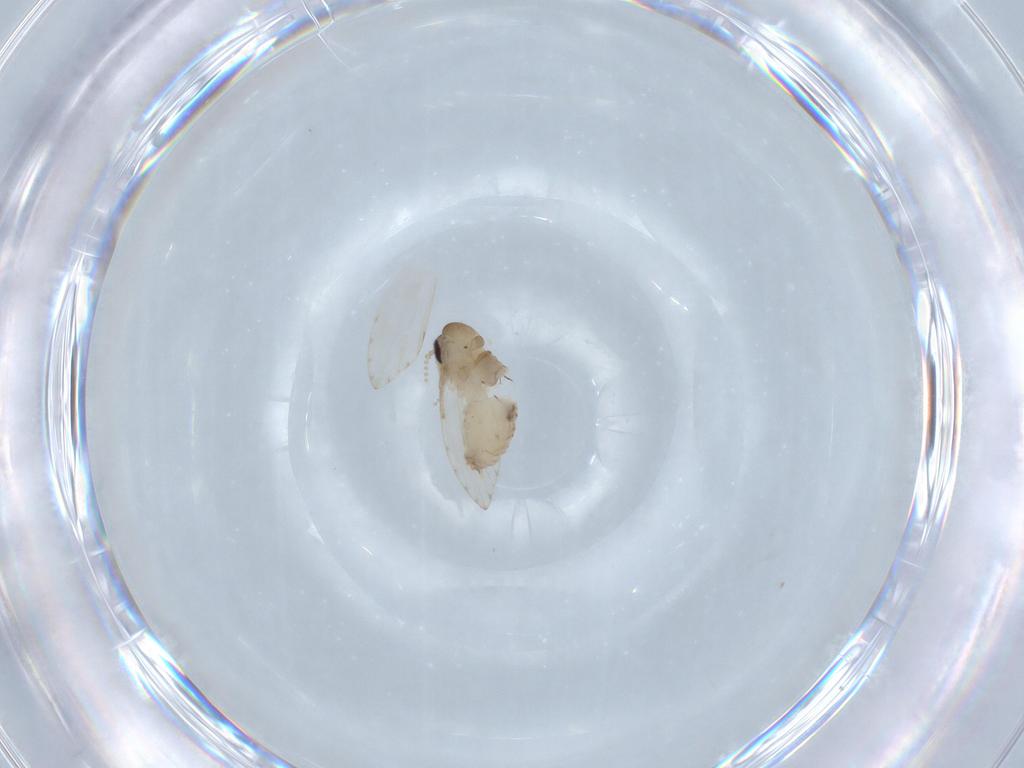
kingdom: Animalia
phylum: Arthropoda
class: Insecta
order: Diptera
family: Psychodidae
